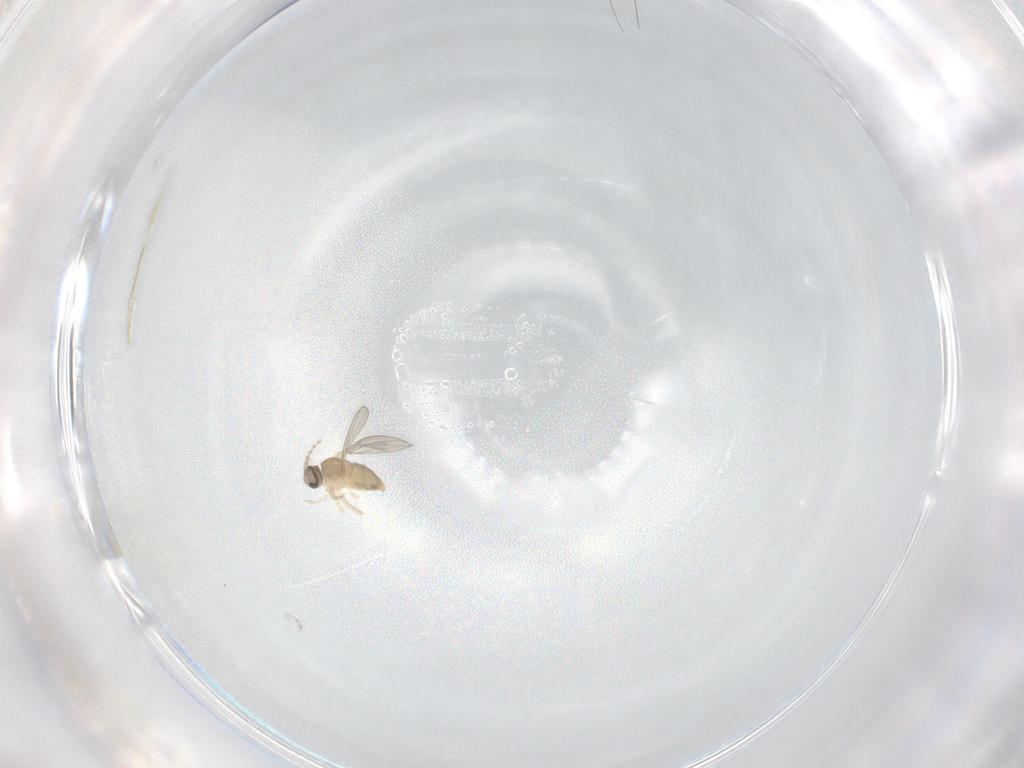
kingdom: Animalia
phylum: Arthropoda
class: Insecta
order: Diptera
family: Cecidomyiidae
